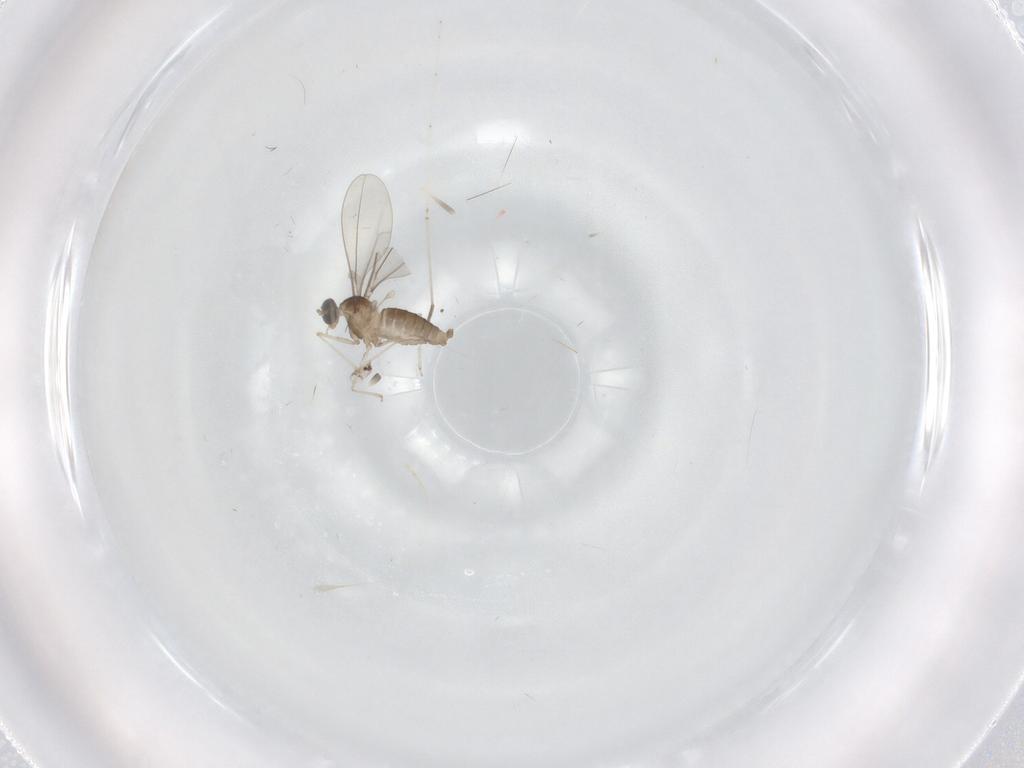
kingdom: Animalia
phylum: Arthropoda
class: Insecta
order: Diptera
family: Cecidomyiidae
